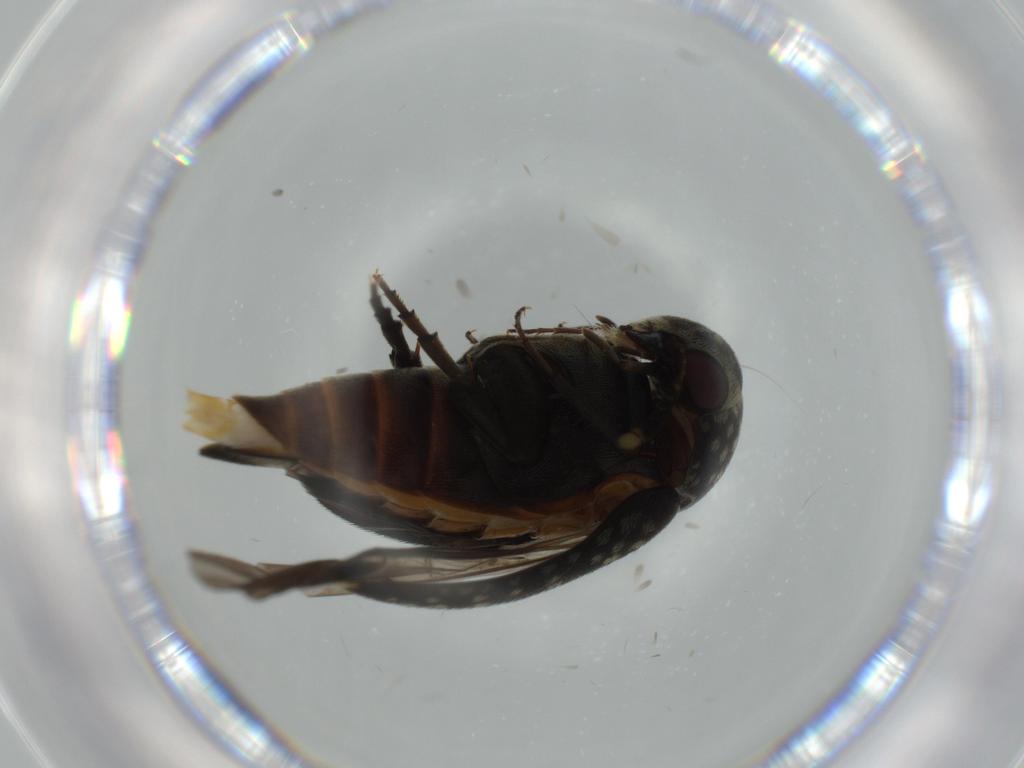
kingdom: Animalia
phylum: Arthropoda
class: Insecta
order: Coleoptera
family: Mordellidae
